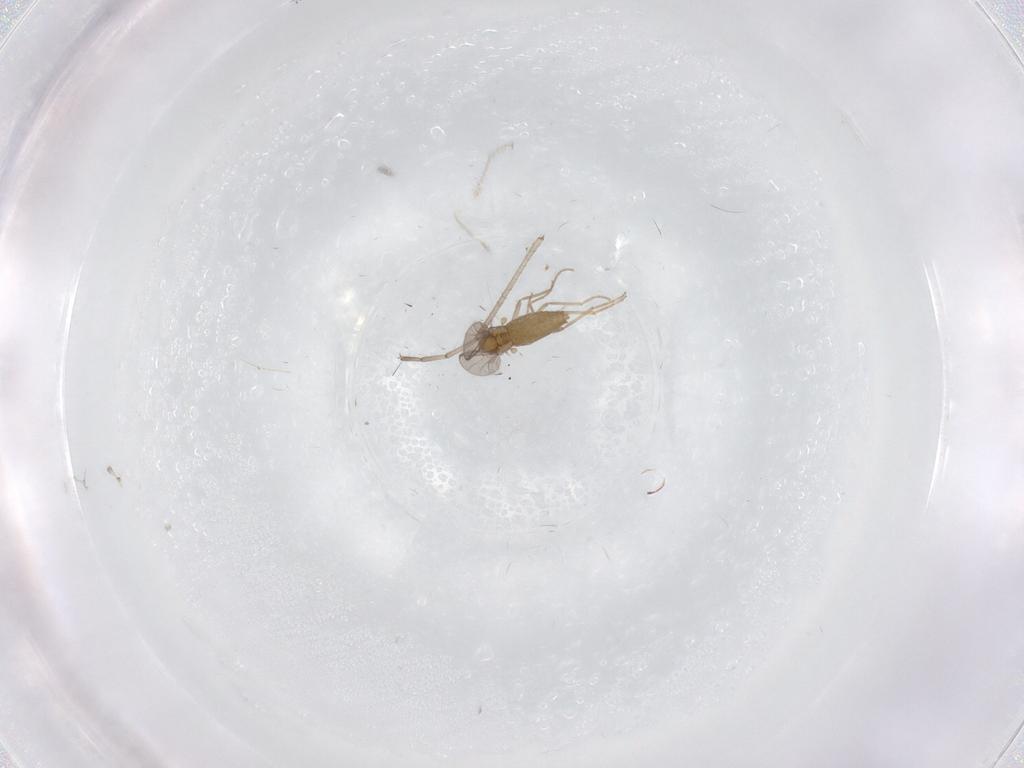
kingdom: Animalia
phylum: Arthropoda
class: Insecta
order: Diptera
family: Chironomidae
